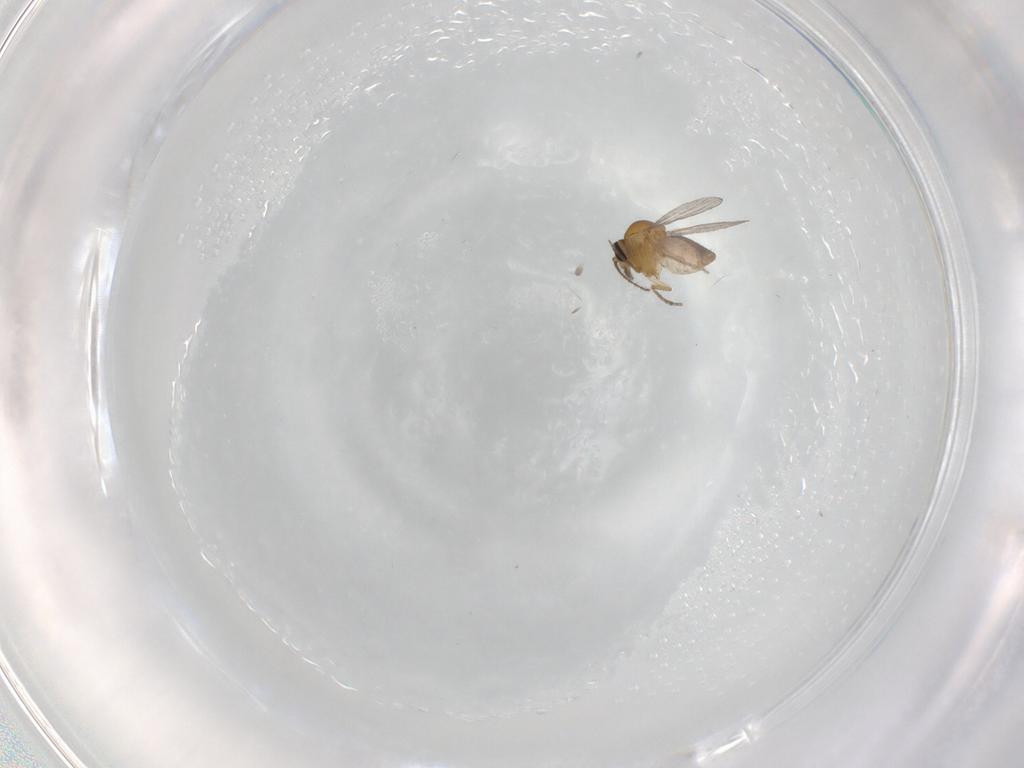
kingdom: Animalia
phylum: Arthropoda
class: Insecta
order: Diptera
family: Cecidomyiidae
